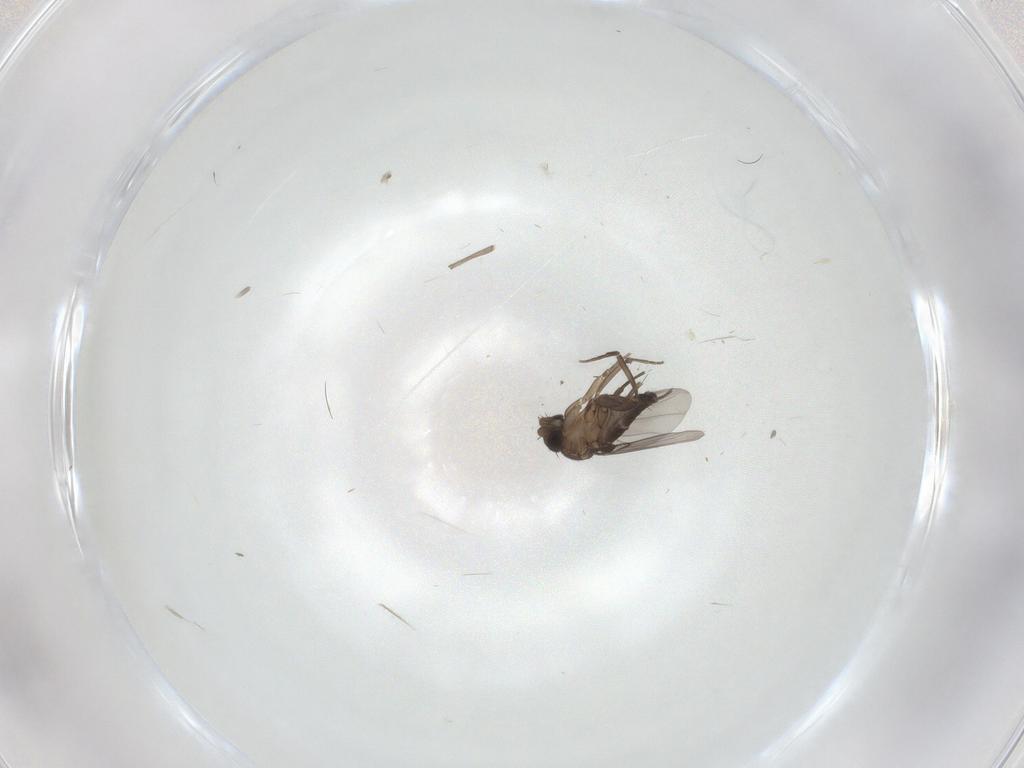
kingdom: Animalia
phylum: Arthropoda
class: Insecta
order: Diptera
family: Phoridae
